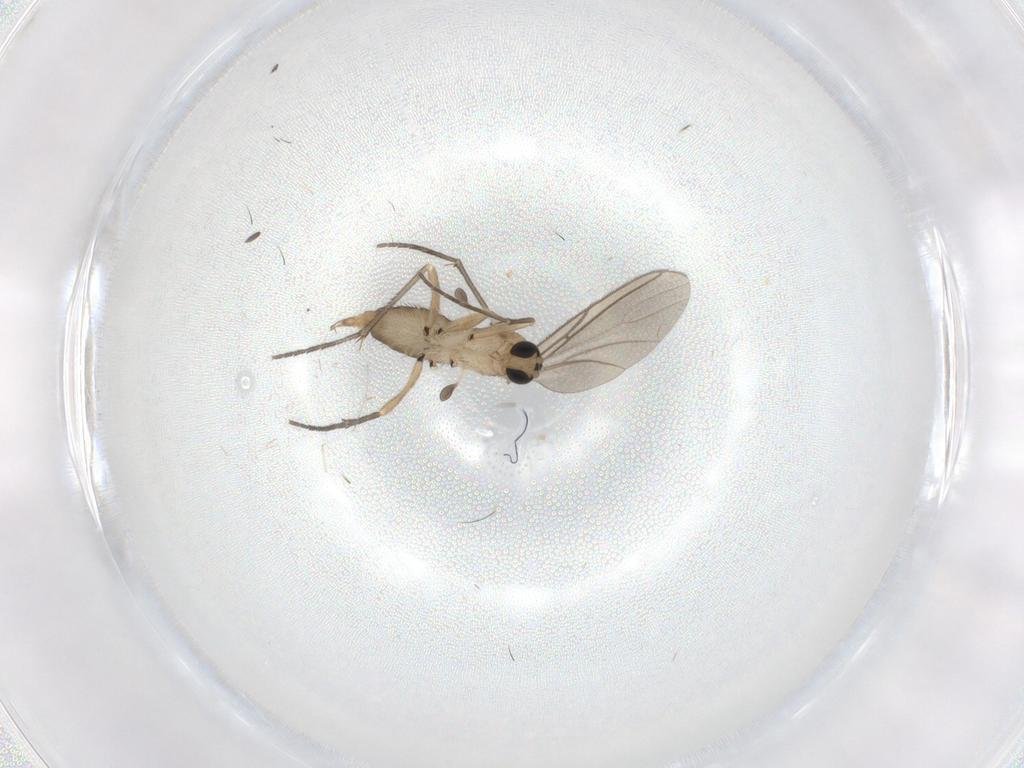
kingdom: Animalia
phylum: Arthropoda
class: Insecta
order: Diptera
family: Sciaridae
